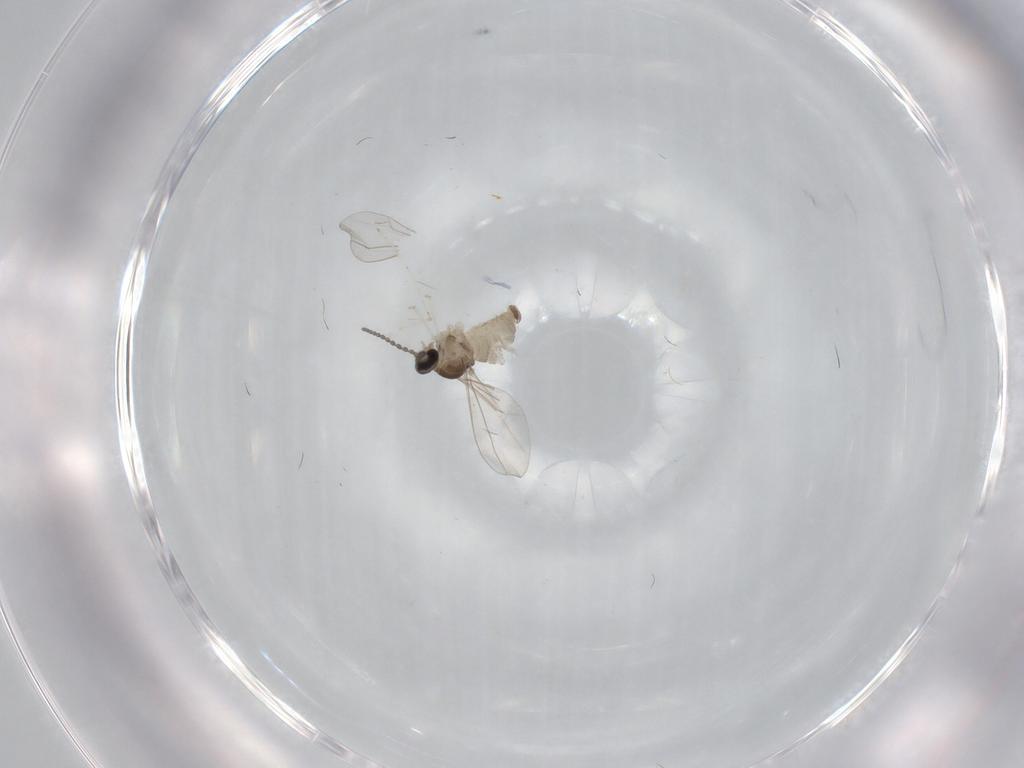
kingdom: Animalia
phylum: Arthropoda
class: Insecta
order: Diptera
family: Cecidomyiidae
